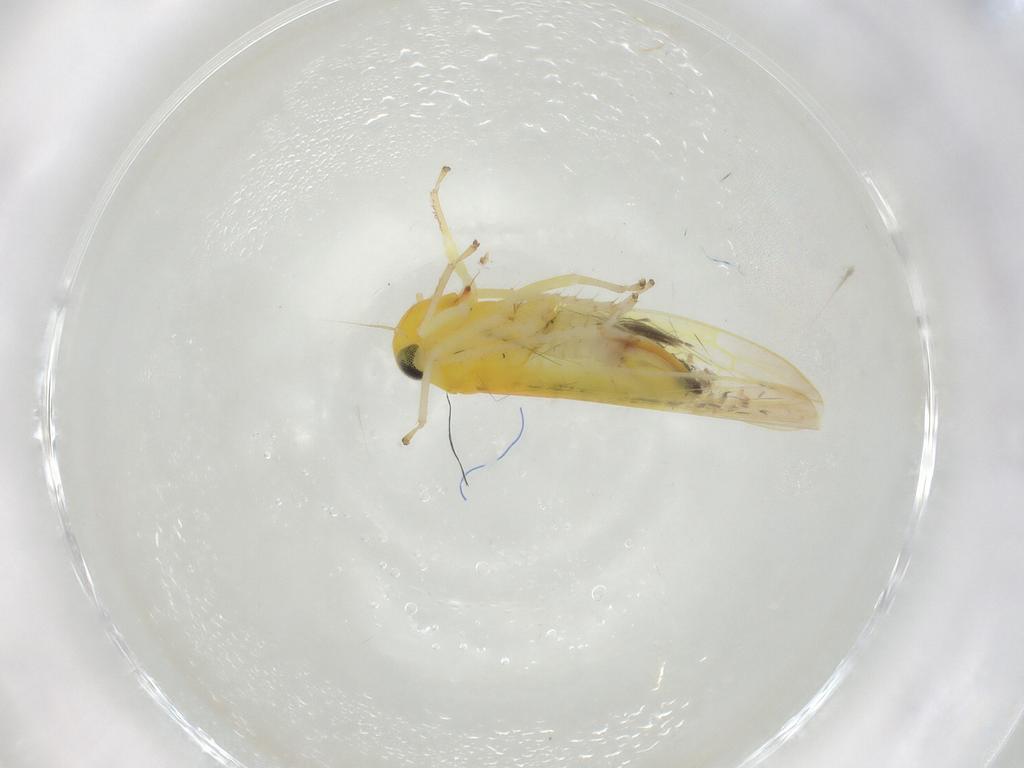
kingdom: Animalia
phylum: Arthropoda
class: Insecta
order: Hemiptera
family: Cicadellidae
